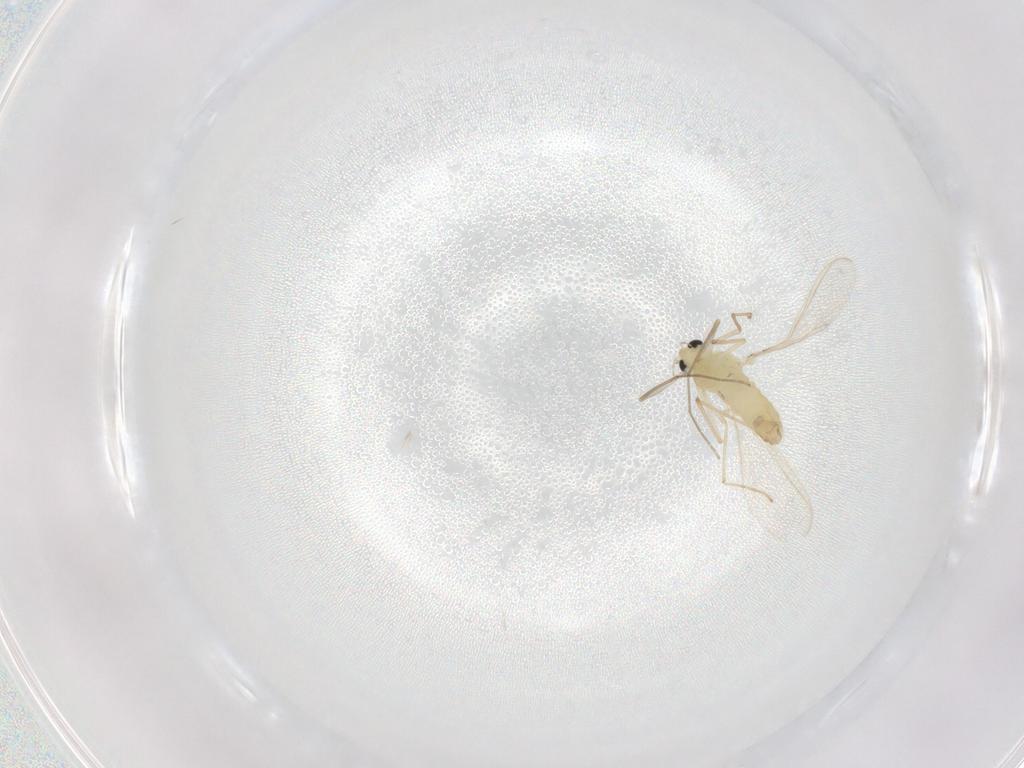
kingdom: Animalia
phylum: Arthropoda
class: Insecta
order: Diptera
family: Chironomidae
